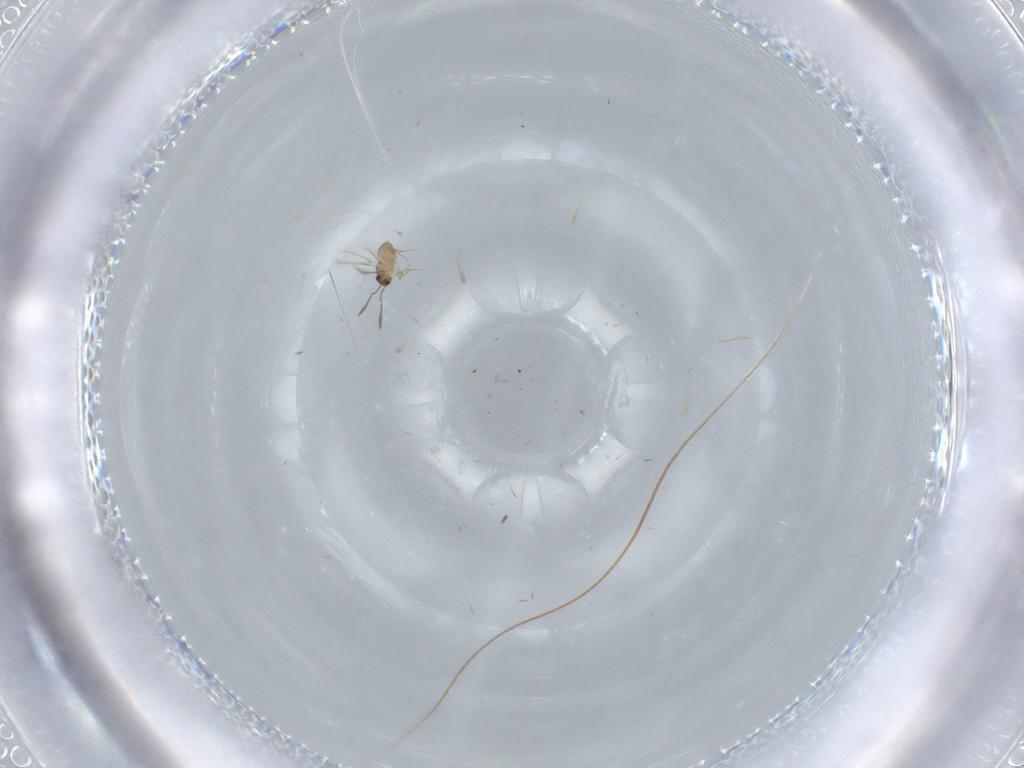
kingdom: Animalia
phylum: Arthropoda
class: Insecta
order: Hymenoptera
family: Mymaridae
